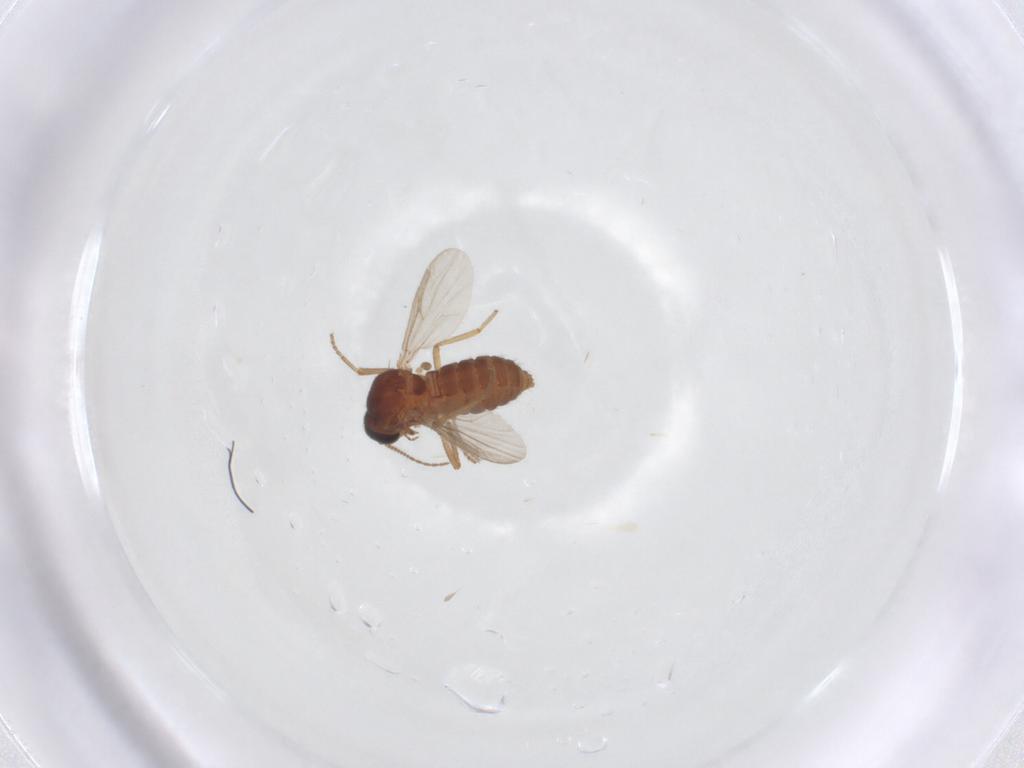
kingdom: Animalia
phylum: Arthropoda
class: Insecta
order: Diptera
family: Ceratopogonidae
